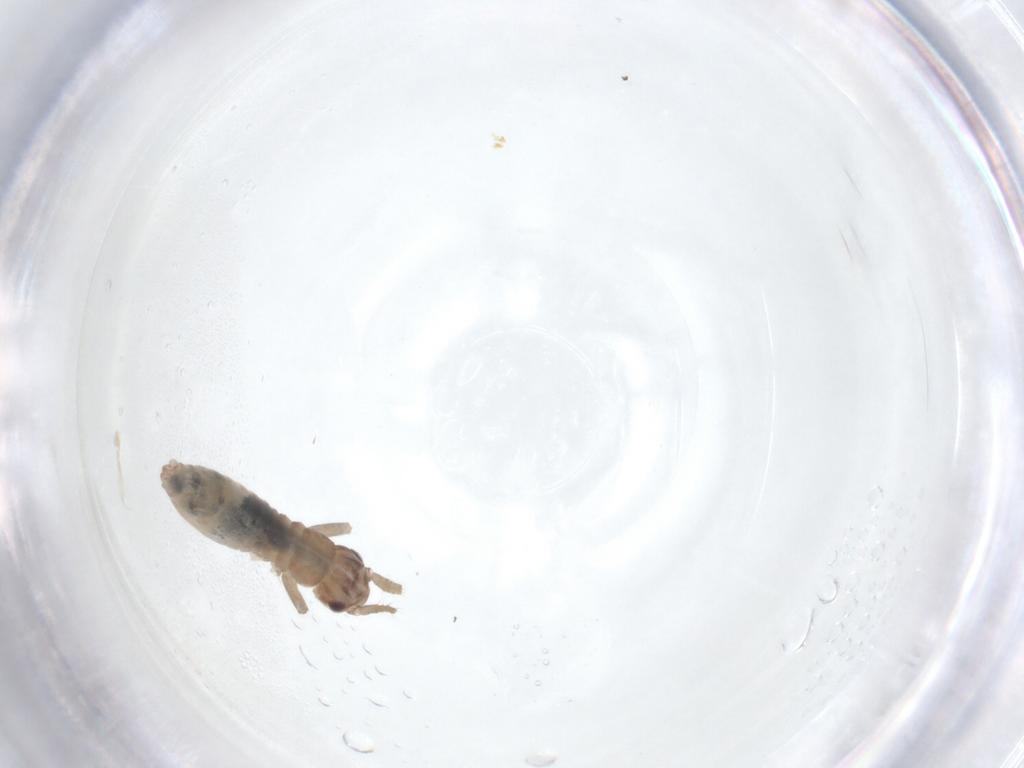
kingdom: Animalia
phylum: Arthropoda
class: Insecta
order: Orthoptera
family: Mogoplistidae
